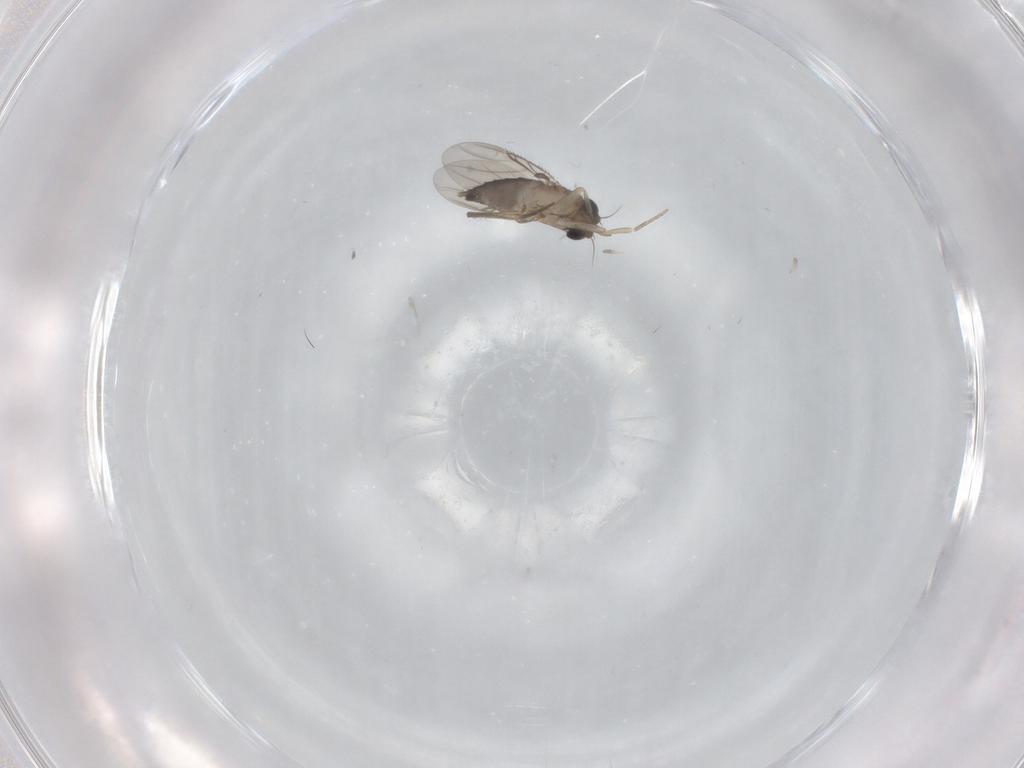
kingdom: Animalia
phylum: Arthropoda
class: Insecta
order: Diptera
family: Phoridae
